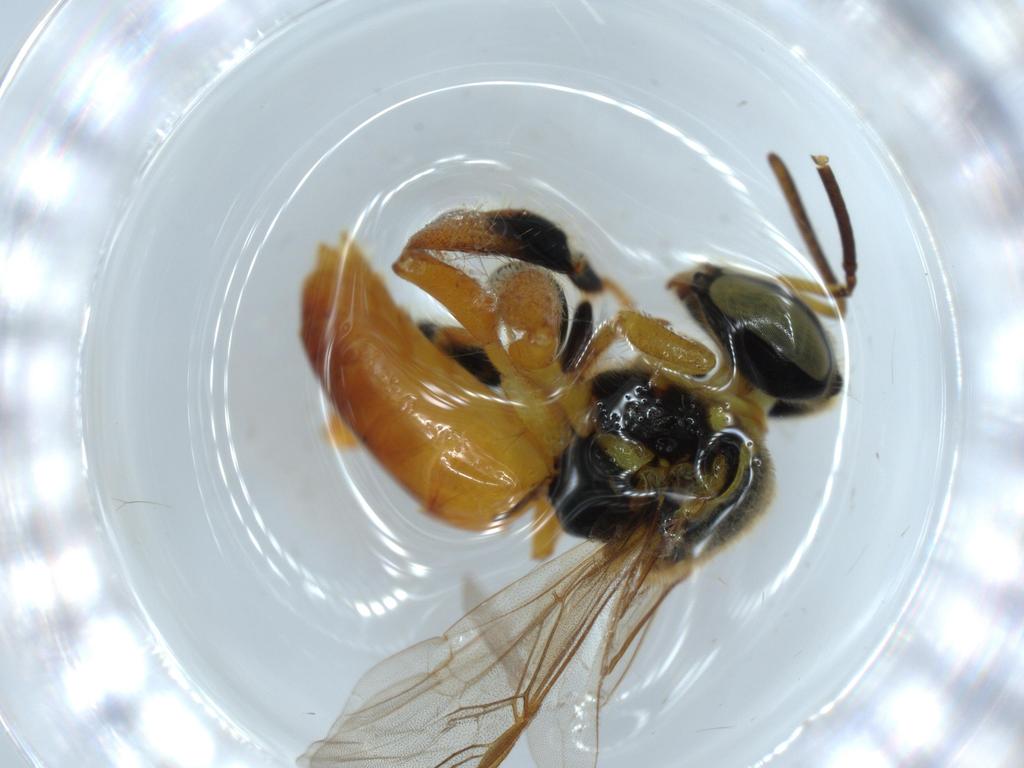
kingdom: Animalia
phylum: Arthropoda
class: Insecta
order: Hymenoptera
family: Apidae
